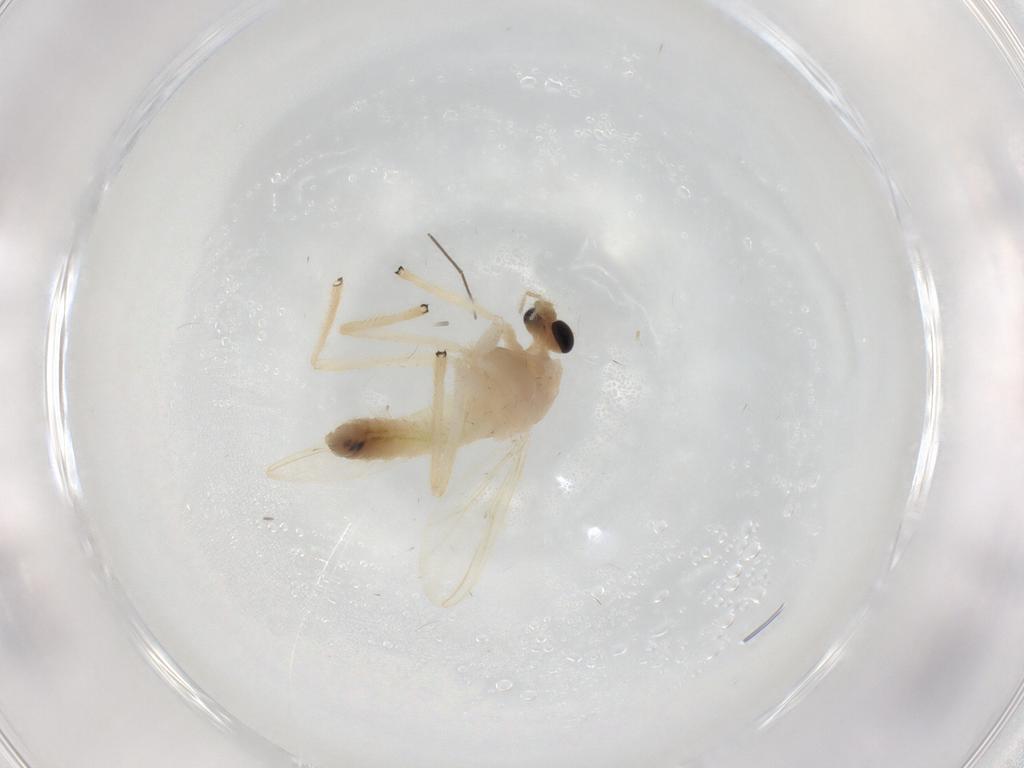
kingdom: Animalia
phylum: Arthropoda
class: Insecta
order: Diptera
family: Chironomidae
